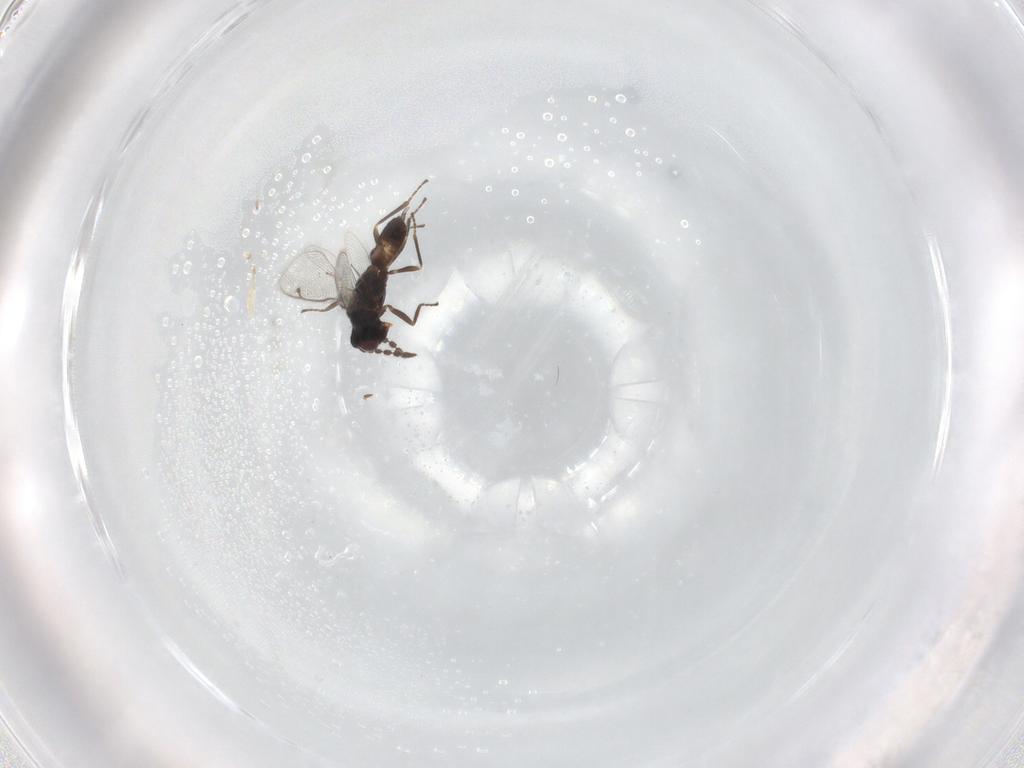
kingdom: Animalia
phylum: Arthropoda
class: Insecta
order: Hymenoptera
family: Eulophidae
